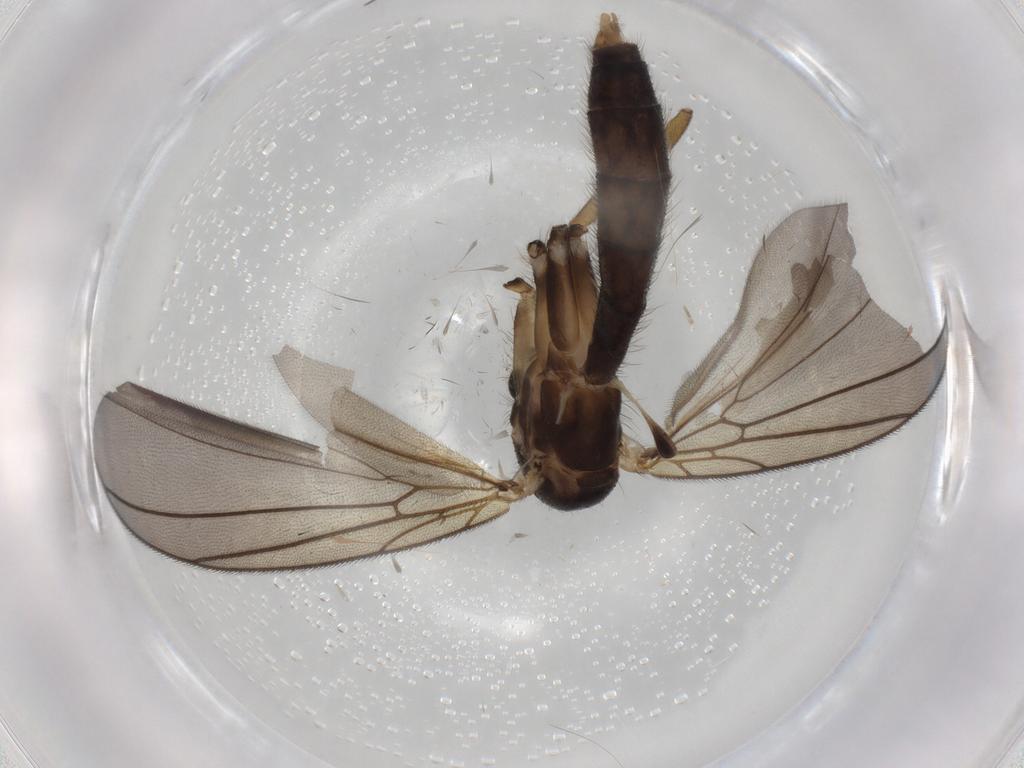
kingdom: Animalia
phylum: Arthropoda
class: Insecta
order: Diptera
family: Mycetophilidae
